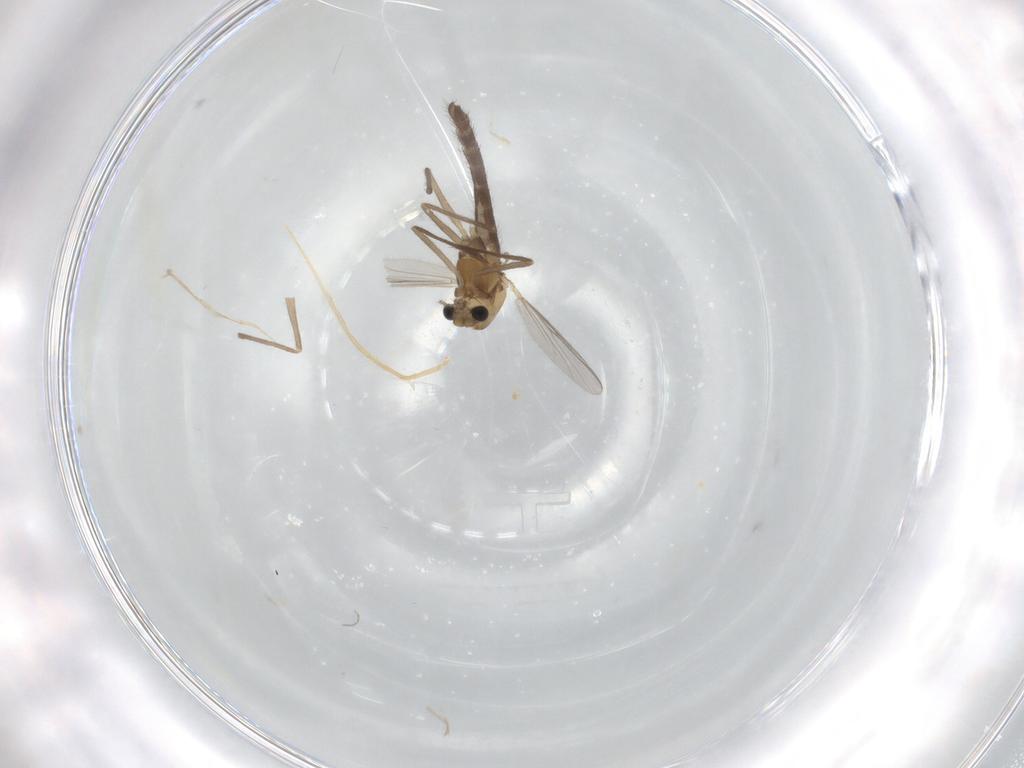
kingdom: Animalia
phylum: Arthropoda
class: Insecta
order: Diptera
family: Chironomidae
